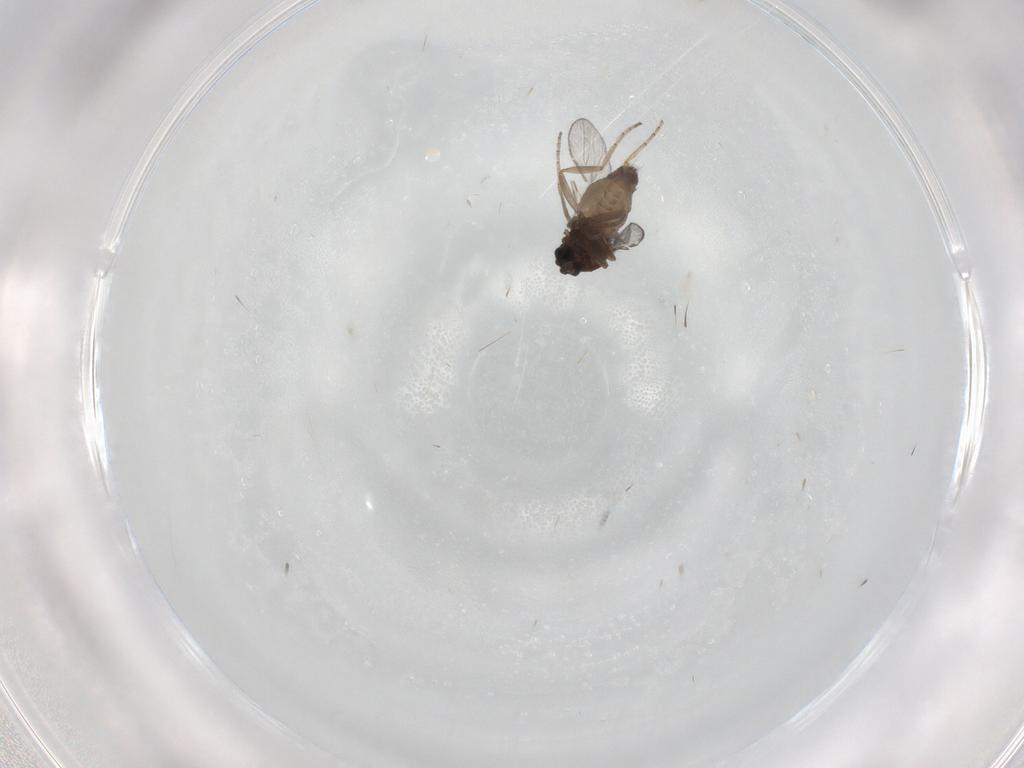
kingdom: Animalia
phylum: Arthropoda
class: Insecta
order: Diptera
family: Ceratopogonidae
